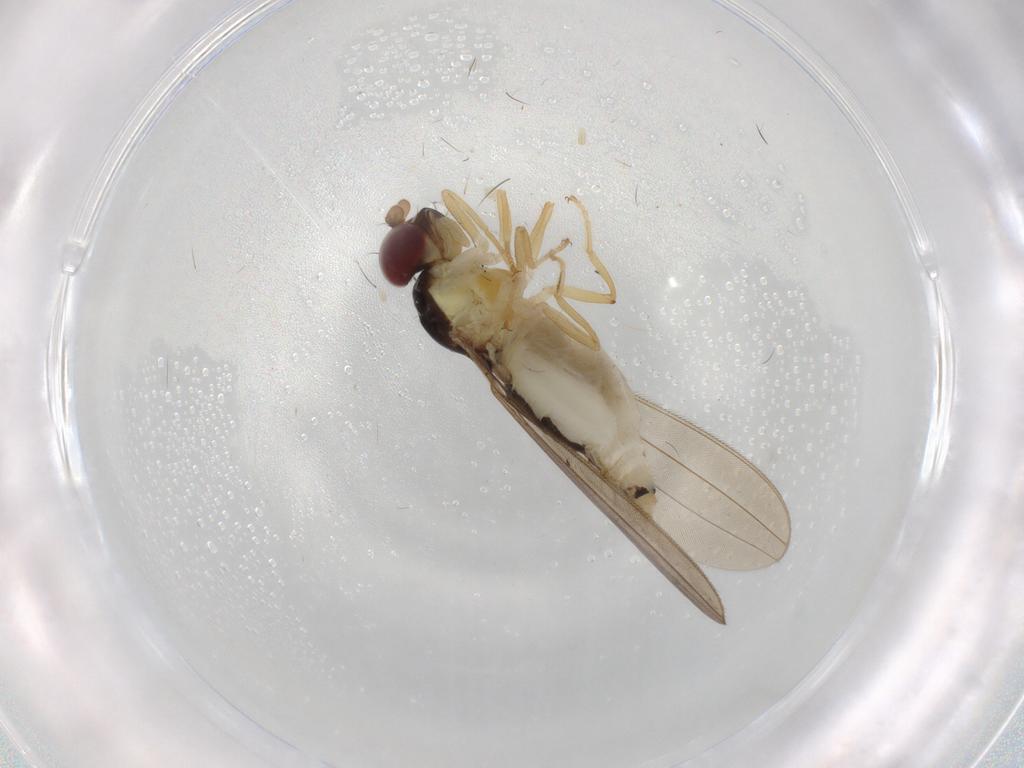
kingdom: Animalia
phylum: Arthropoda
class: Insecta
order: Diptera
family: Asteiidae
